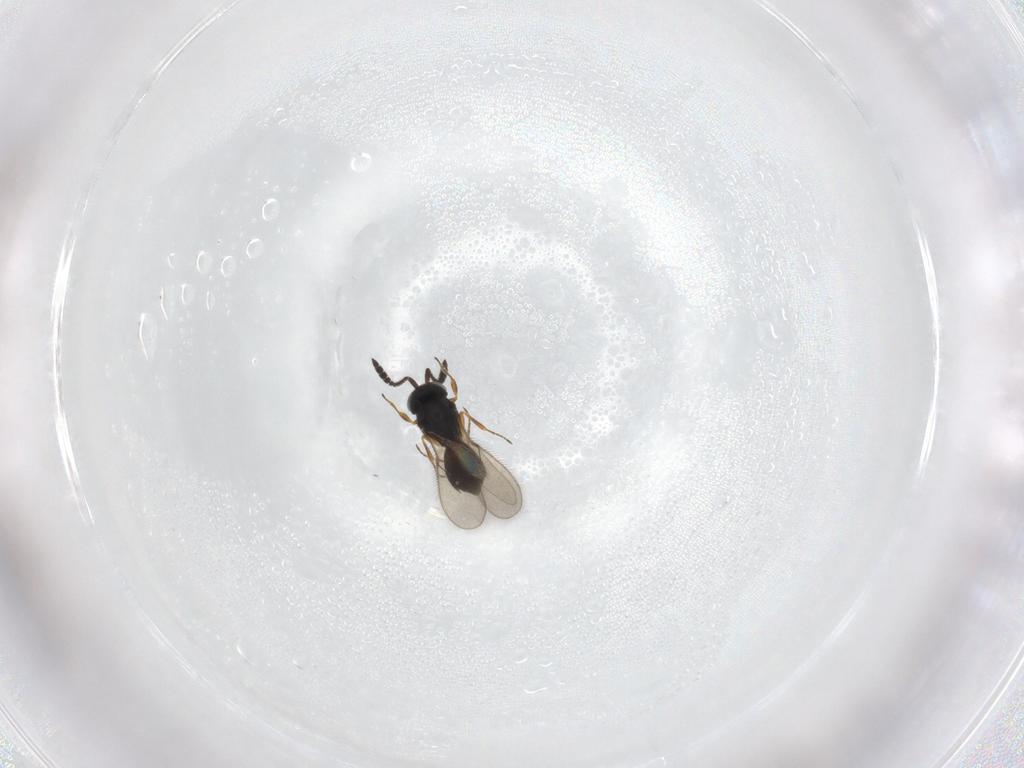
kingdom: Animalia
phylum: Arthropoda
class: Insecta
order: Hymenoptera
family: Scelionidae
